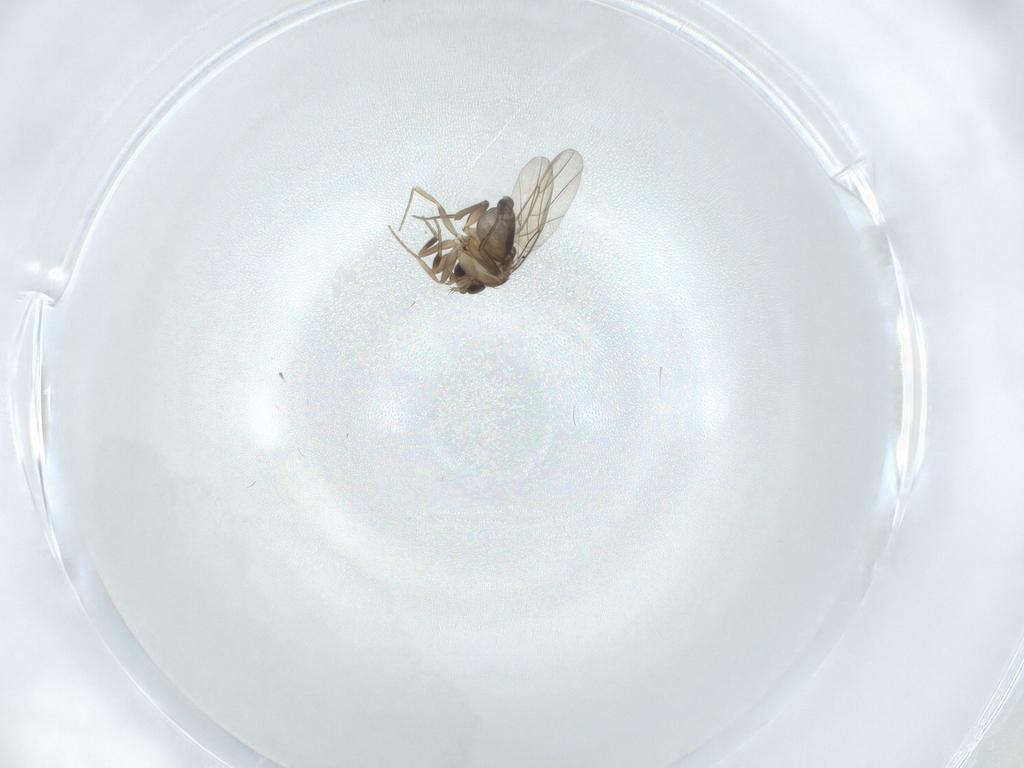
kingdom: Animalia
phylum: Arthropoda
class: Insecta
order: Diptera
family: Phoridae
